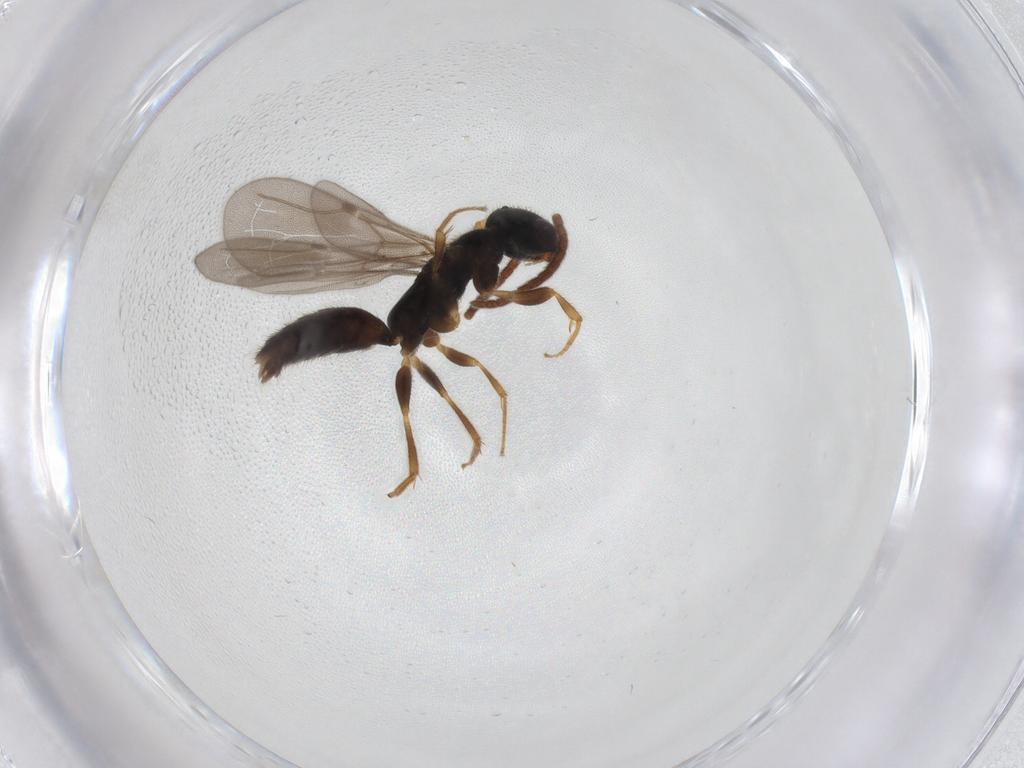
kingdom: Animalia
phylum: Arthropoda
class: Insecta
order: Hymenoptera
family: Bethylidae
